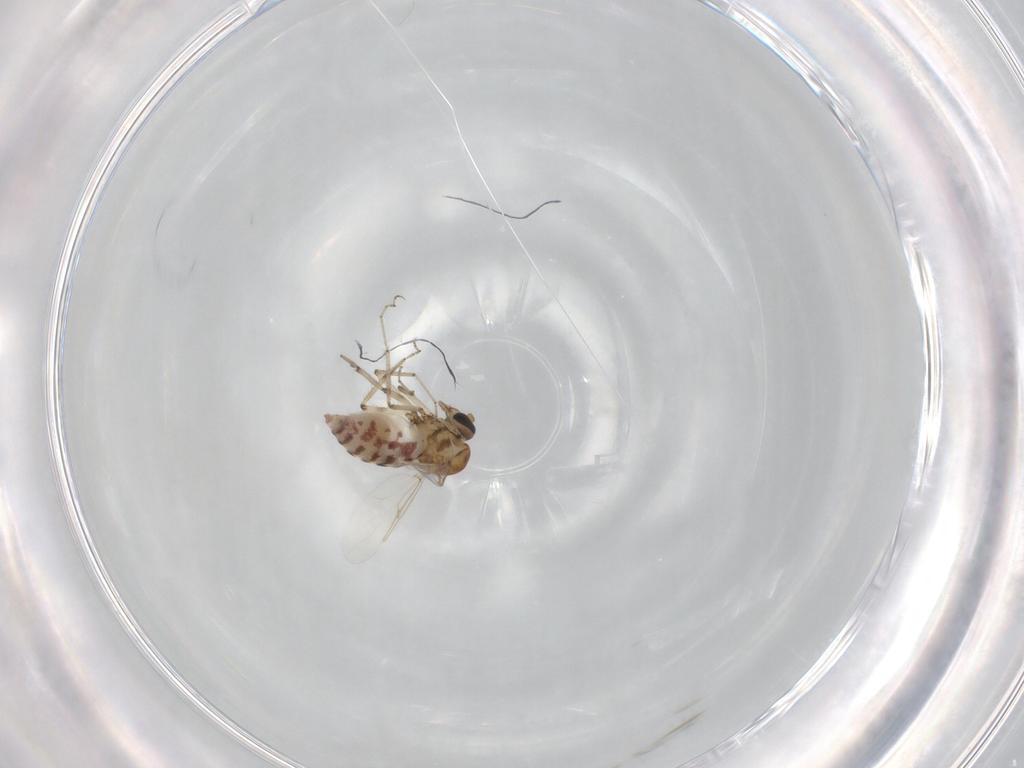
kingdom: Animalia
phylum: Arthropoda
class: Insecta
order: Diptera
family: Ceratopogonidae
